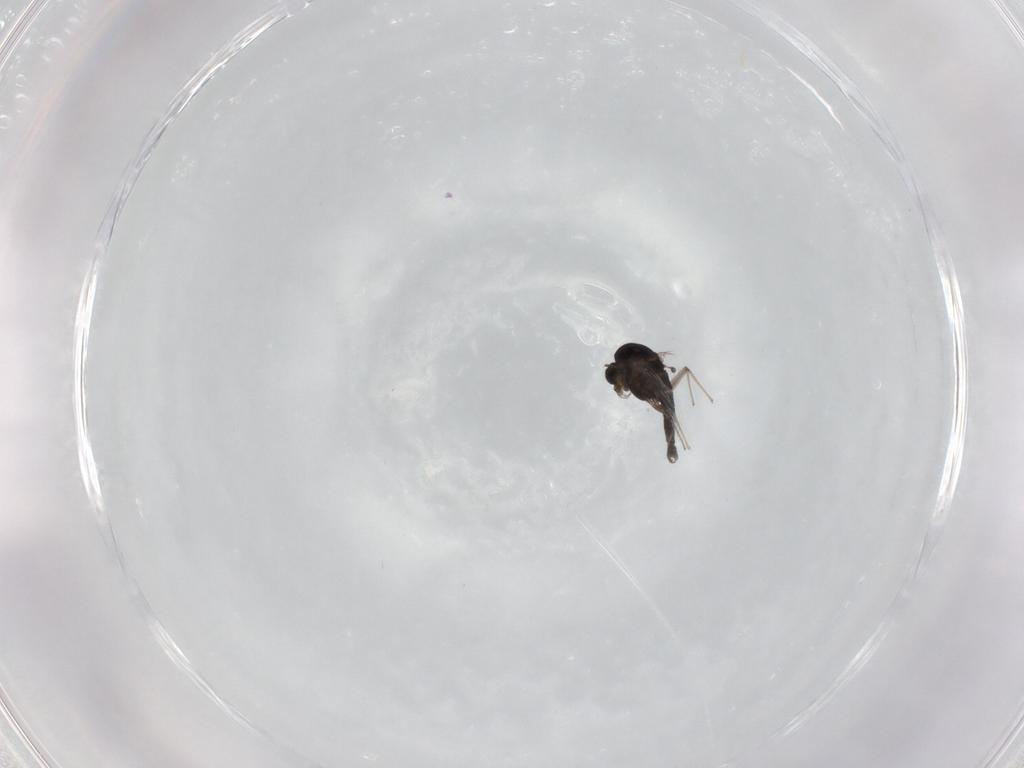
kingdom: Animalia
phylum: Arthropoda
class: Insecta
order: Diptera
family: Chironomidae
